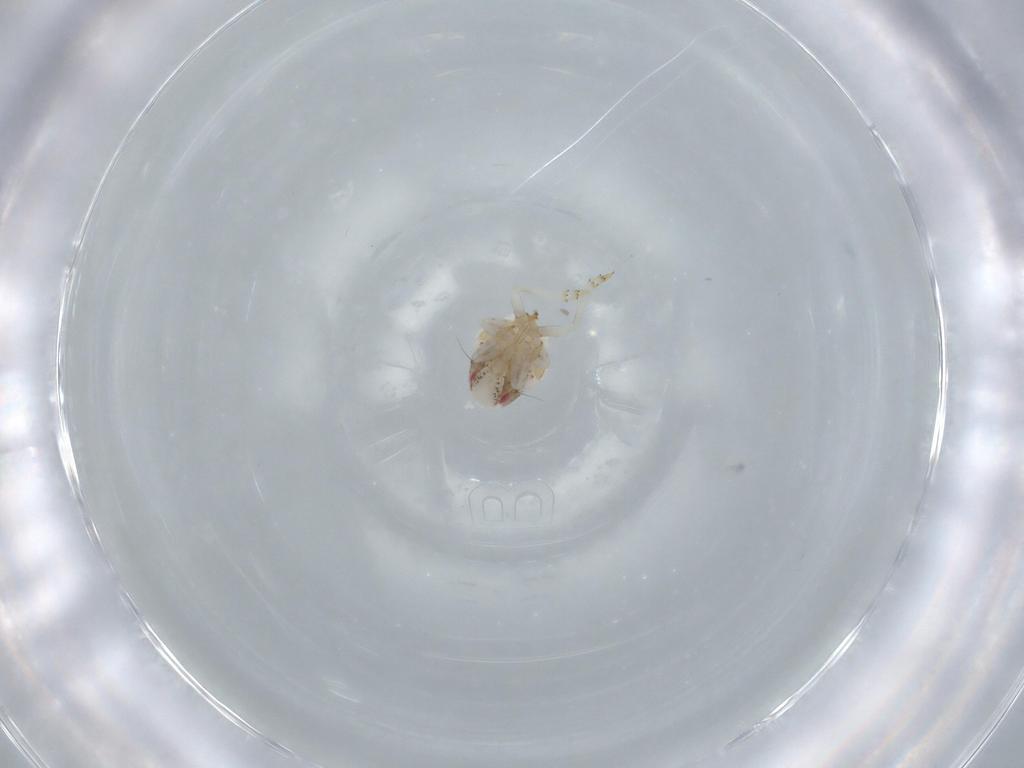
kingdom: Animalia
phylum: Arthropoda
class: Insecta
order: Hemiptera
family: Acanaloniidae
